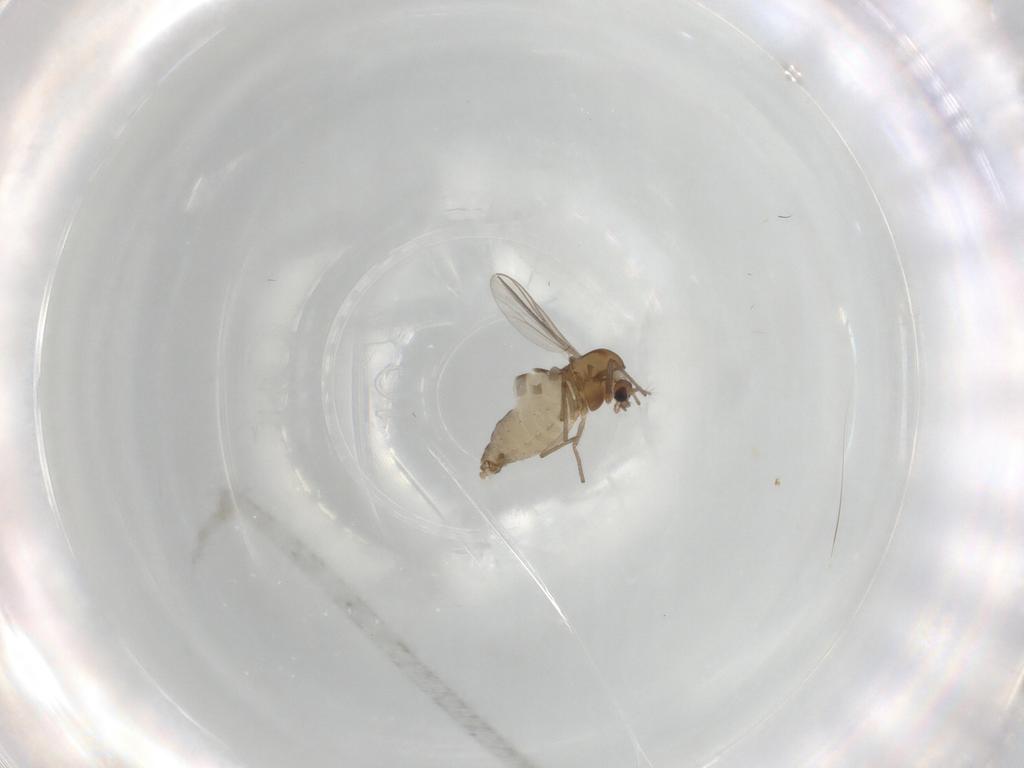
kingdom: Animalia
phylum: Arthropoda
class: Insecta
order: Diptera
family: Chironomidae
